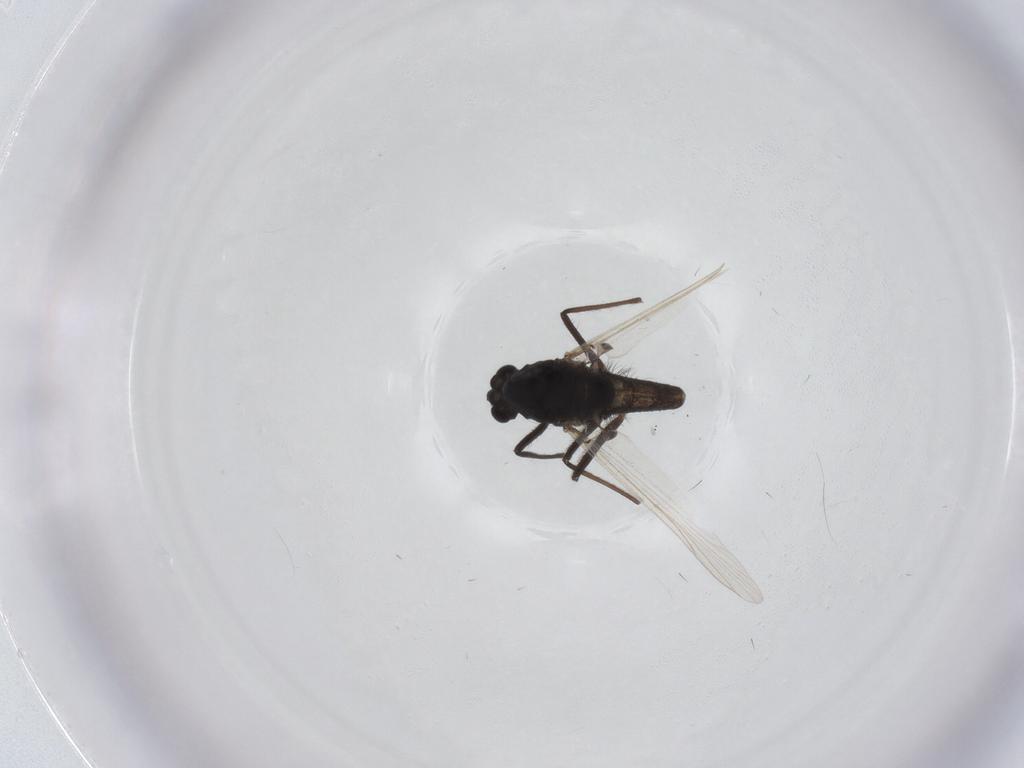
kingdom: Animalia
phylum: Arthropoda
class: Insecta
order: Diptera
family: Chironomidae
